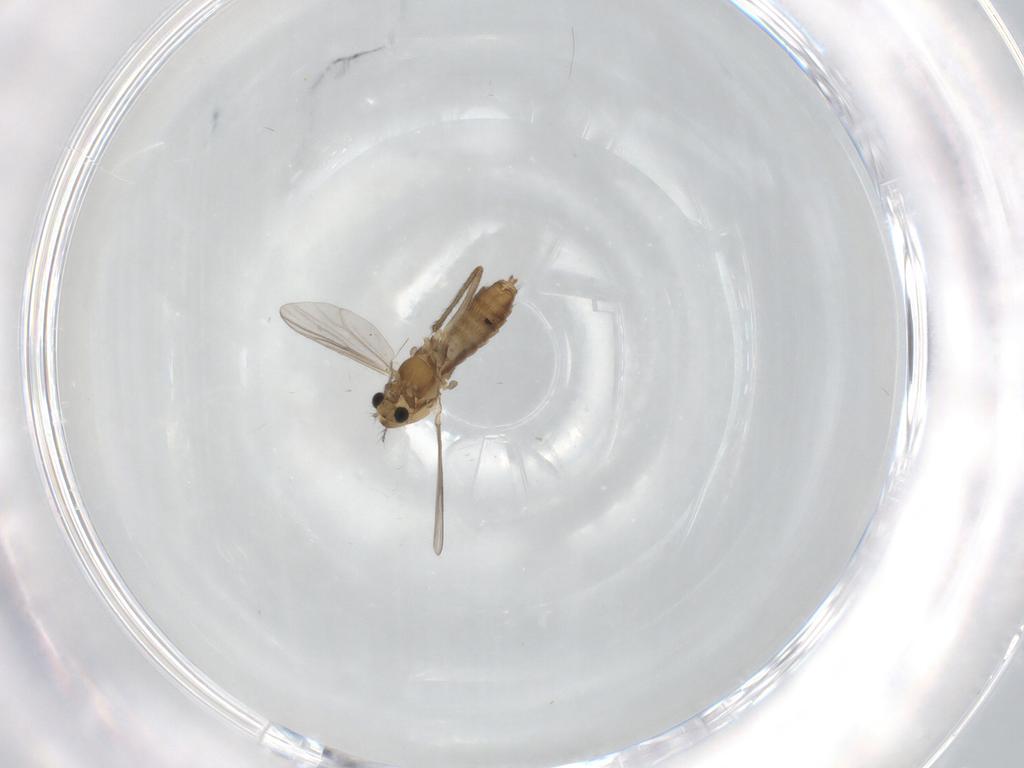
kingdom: Animalia
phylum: Arthropoda
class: Insecta
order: Diptera
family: Chironomidae
